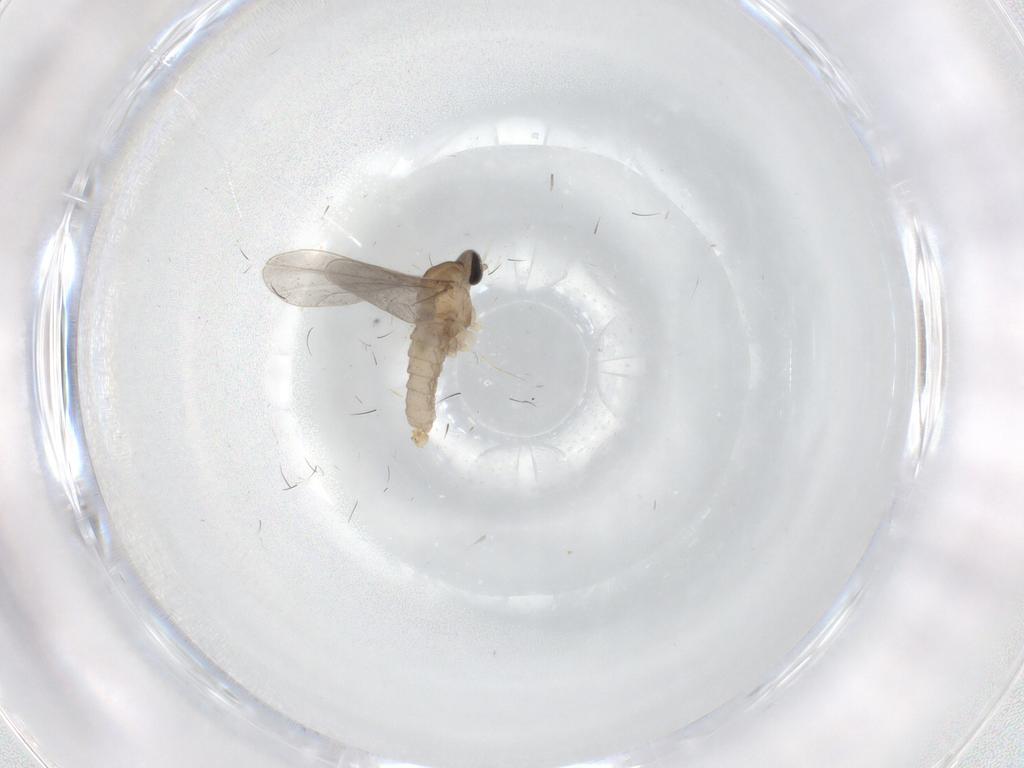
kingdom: Animalia
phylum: Arthropoda
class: Insecta
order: Diptera
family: Cecidomyiidae
